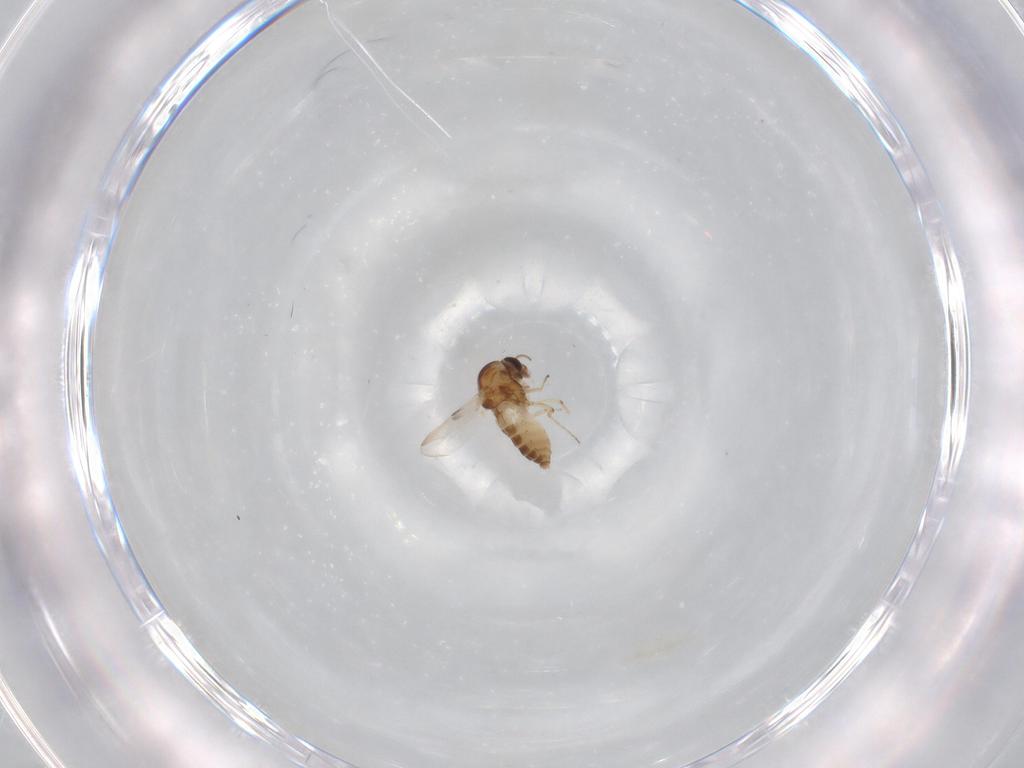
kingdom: Animalia
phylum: Arthropoda
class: Insecta
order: Diptera
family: Ceratopogonidae
